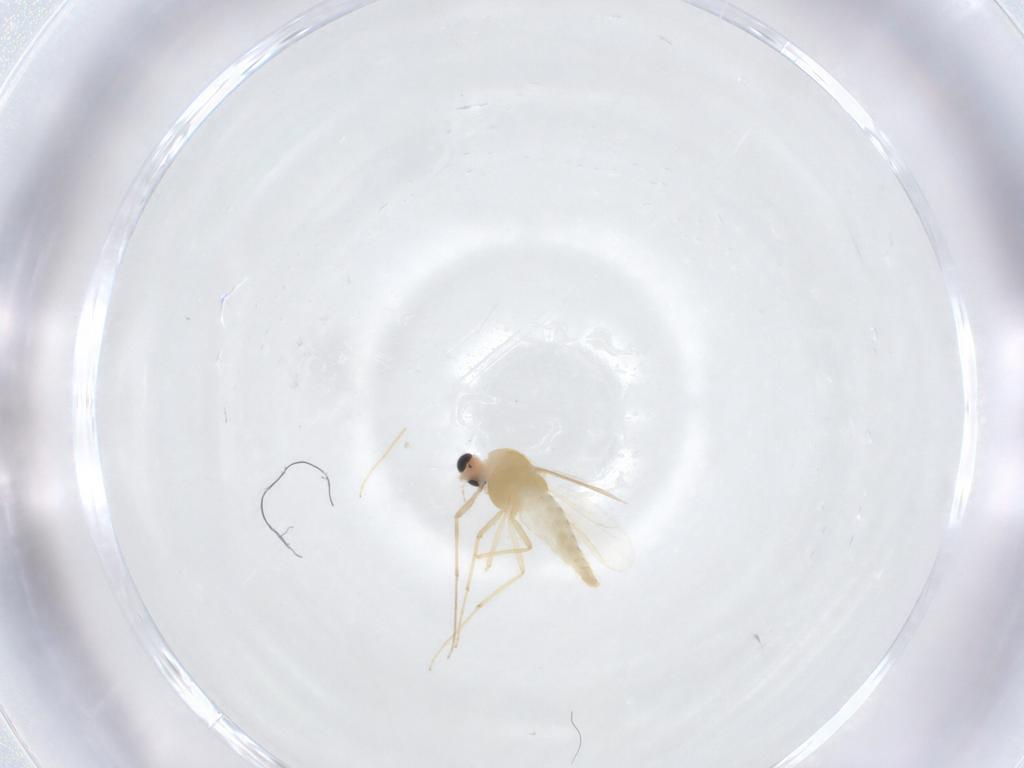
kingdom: Animalia
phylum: Arthropoda
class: Insecta
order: Diptera
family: Chironomidae
